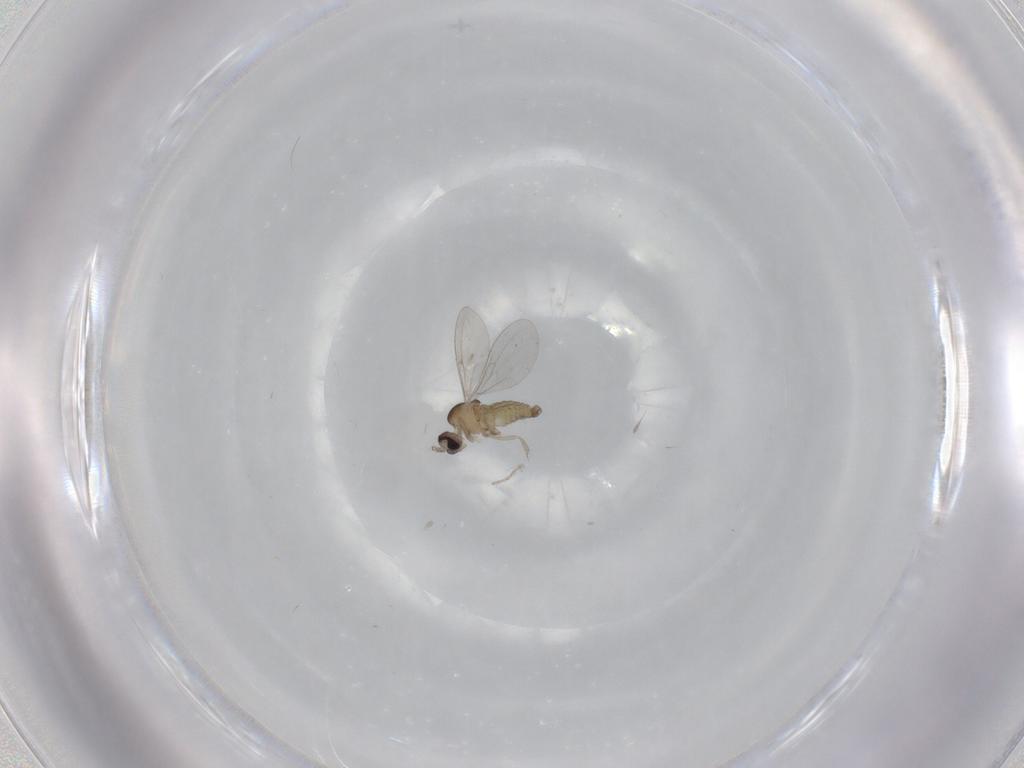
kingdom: Animalia
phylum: Arthropoda
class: Insecta
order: Diptera
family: Cecidomyiidae
